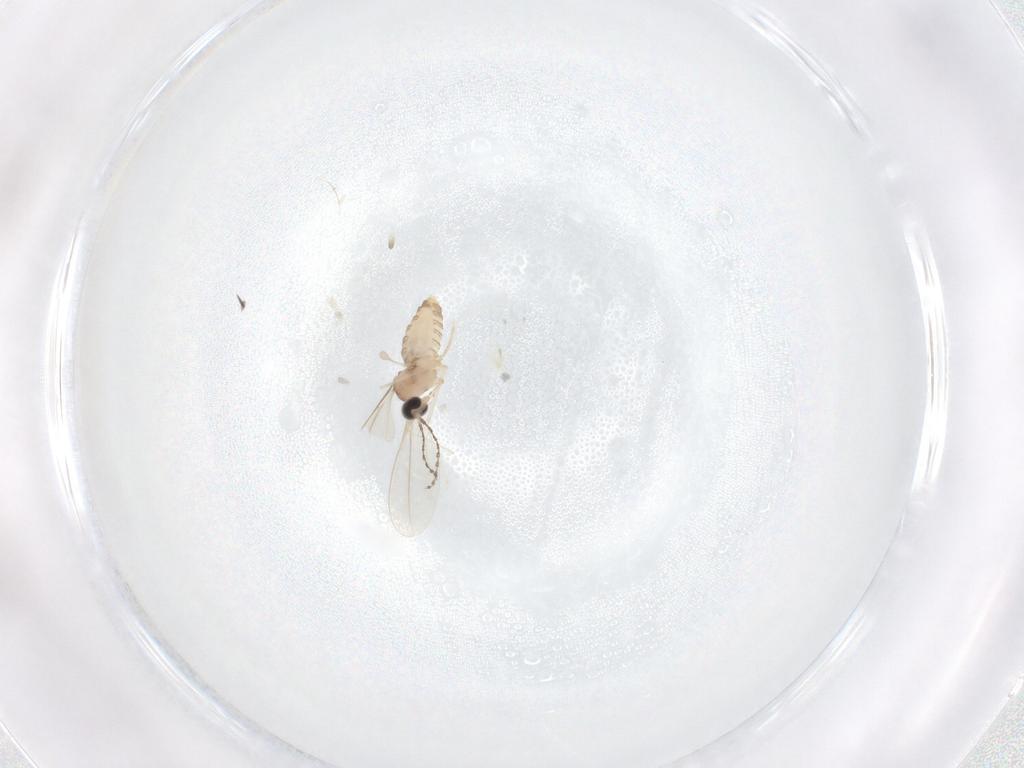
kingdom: Animalia
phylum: Arthropoda
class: Insecta
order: Diptera
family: Cecidomyiidae
